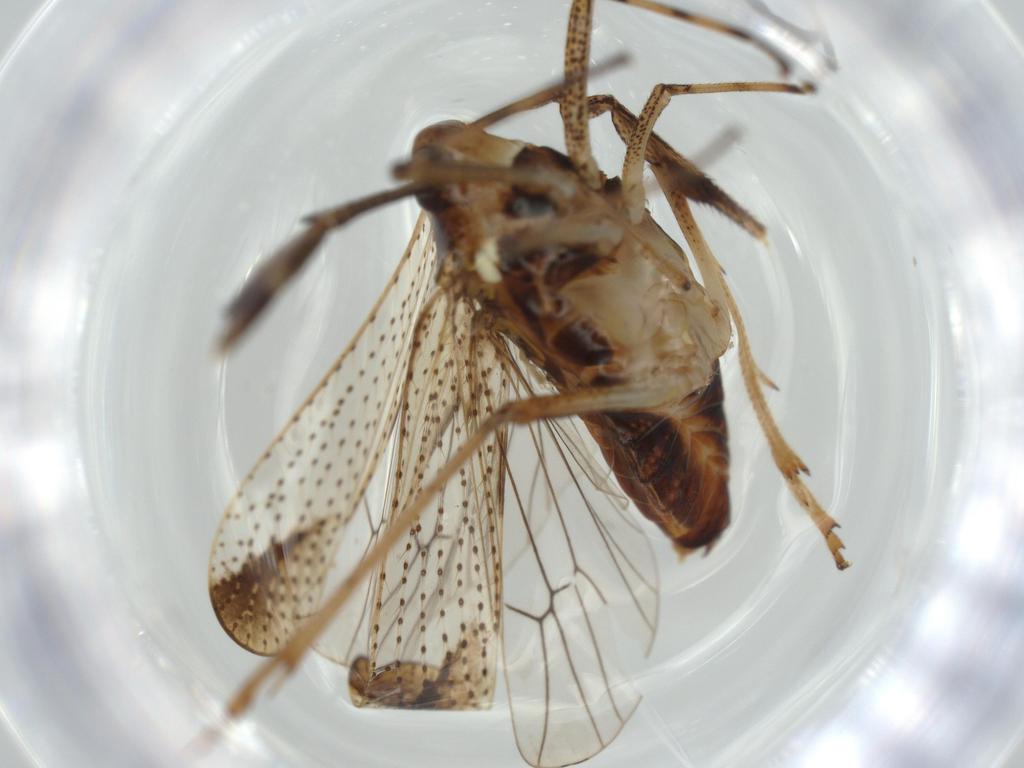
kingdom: Animalia
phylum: Arthropoda
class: Insecta
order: Hemiptera
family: Delphacidae
